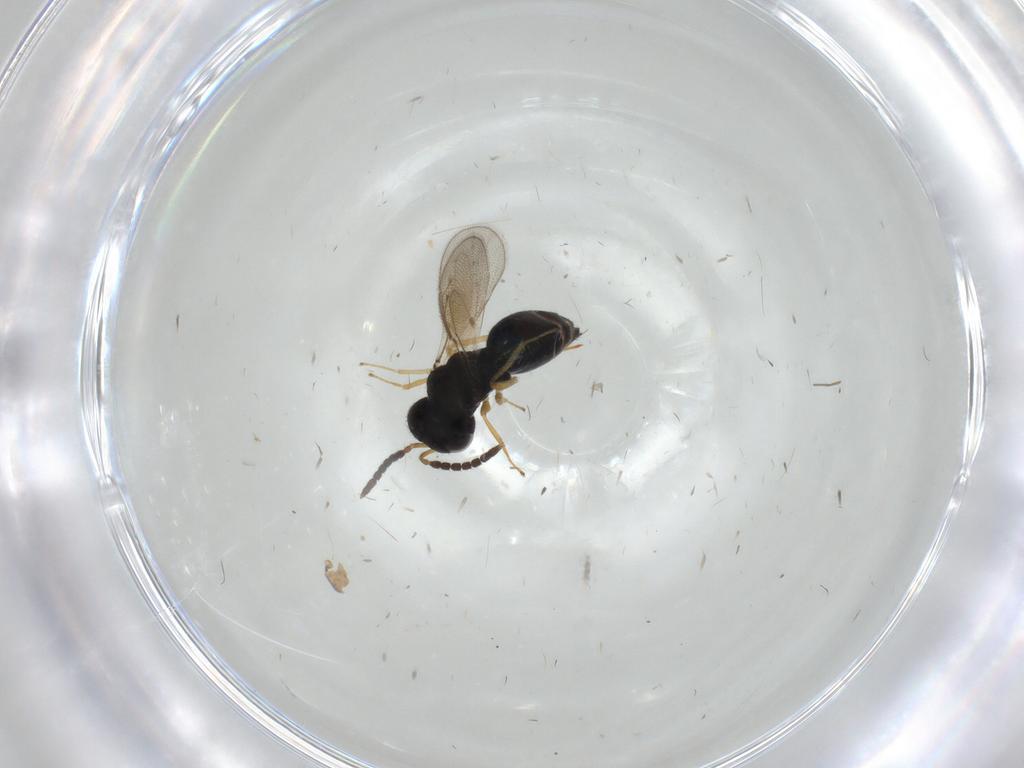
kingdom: Animalia
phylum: Arthropoda
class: Insecta
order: Hymenoptera
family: Pteromalidae
